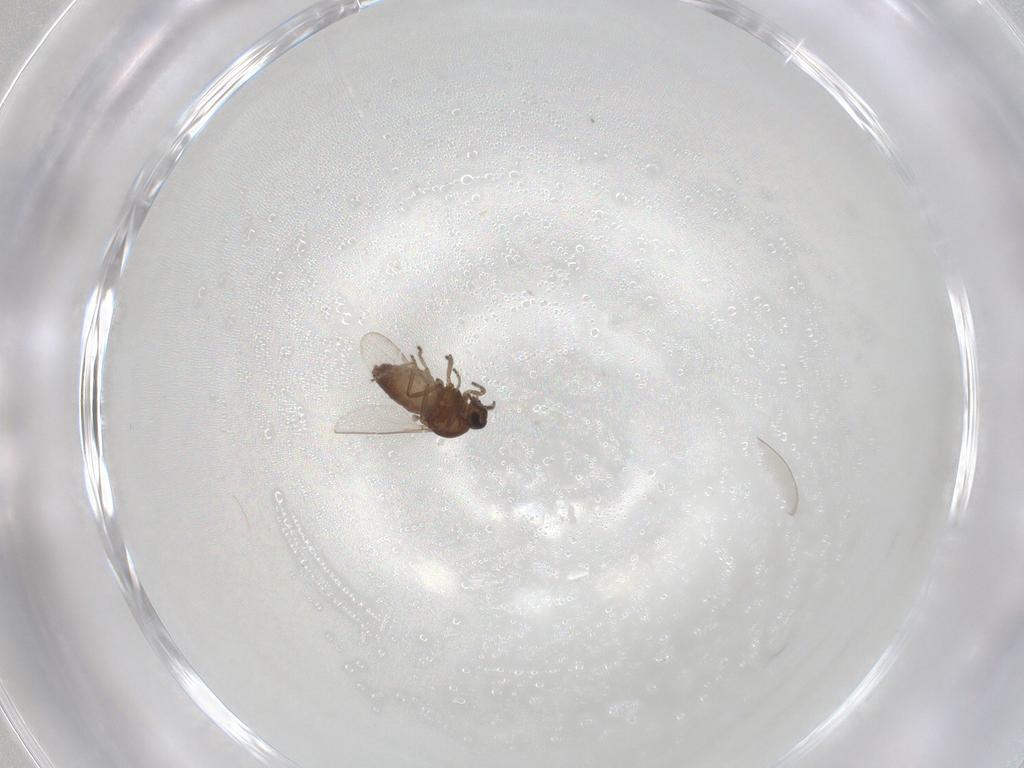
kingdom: Animalia
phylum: Arthropoda
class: Insecta
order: Diptera
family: Ceratopogonidae
